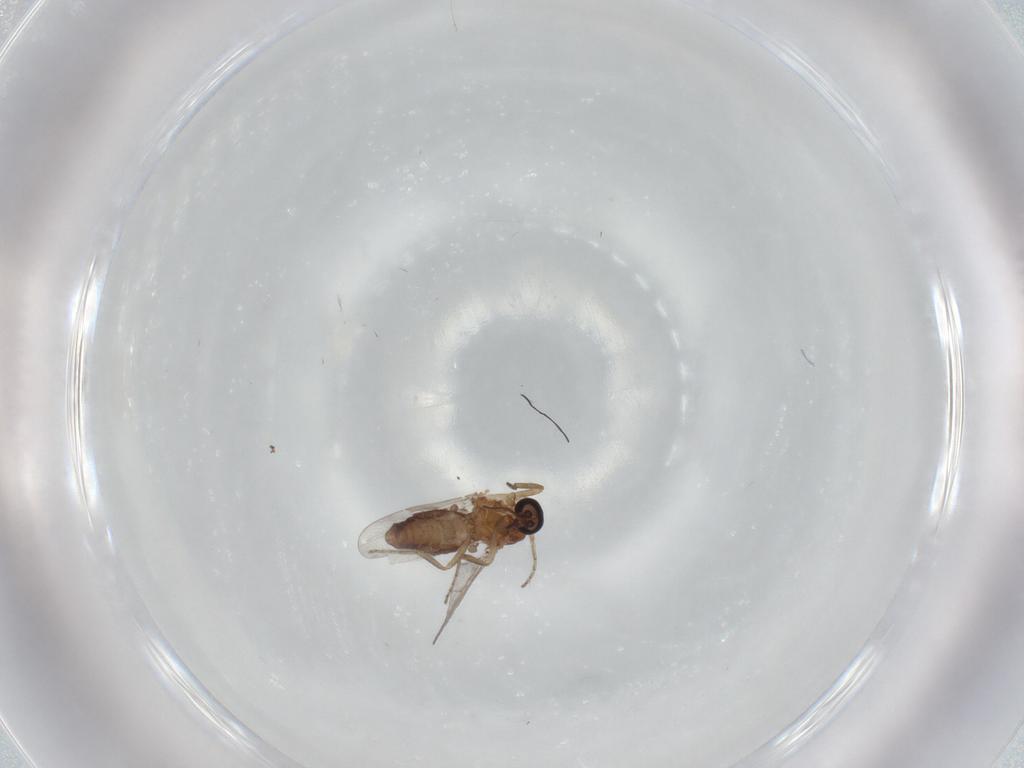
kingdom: Animalia
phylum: Arthropoda
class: Insecta
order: Diptera
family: Ceratopogonidae
